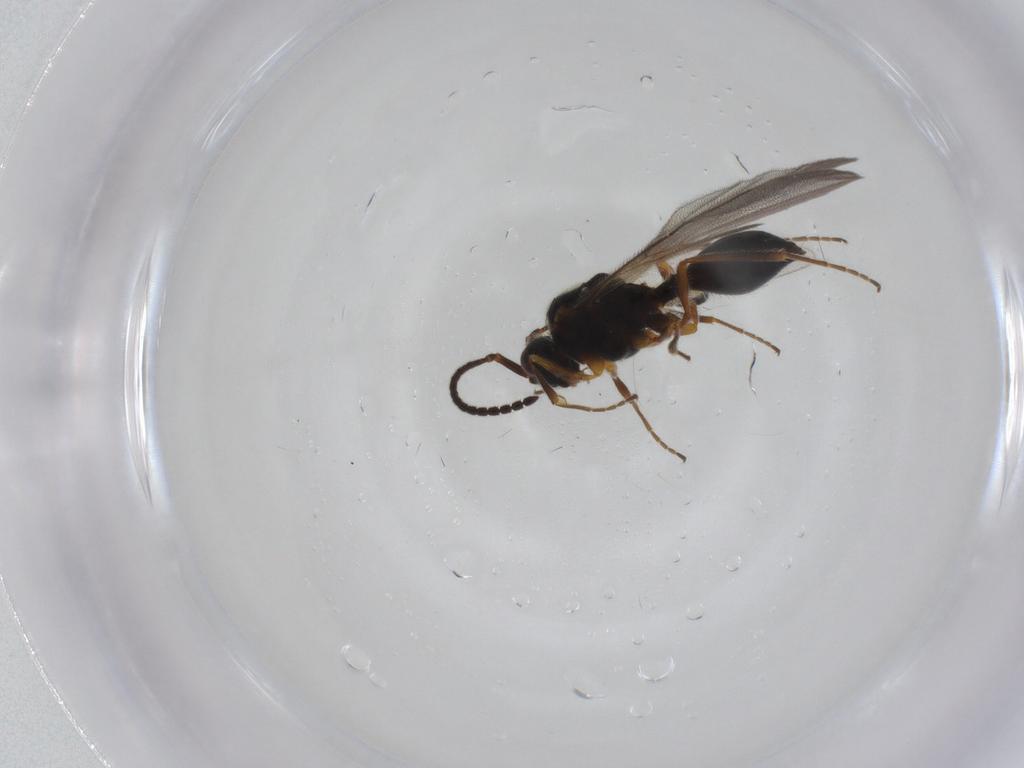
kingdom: Animalia
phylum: Arthropoda
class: Insecta
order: Hymenoptera
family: Diapriidae
